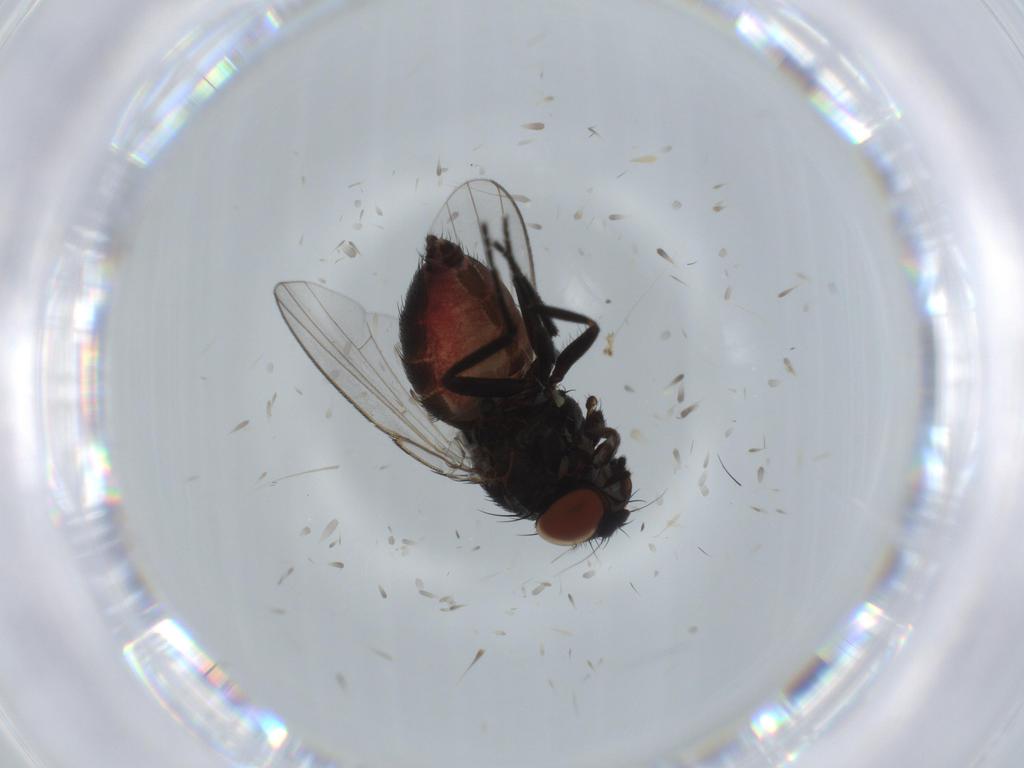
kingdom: Animalia
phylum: Arthropoda
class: Insecta
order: Diptera
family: Milichiidae
